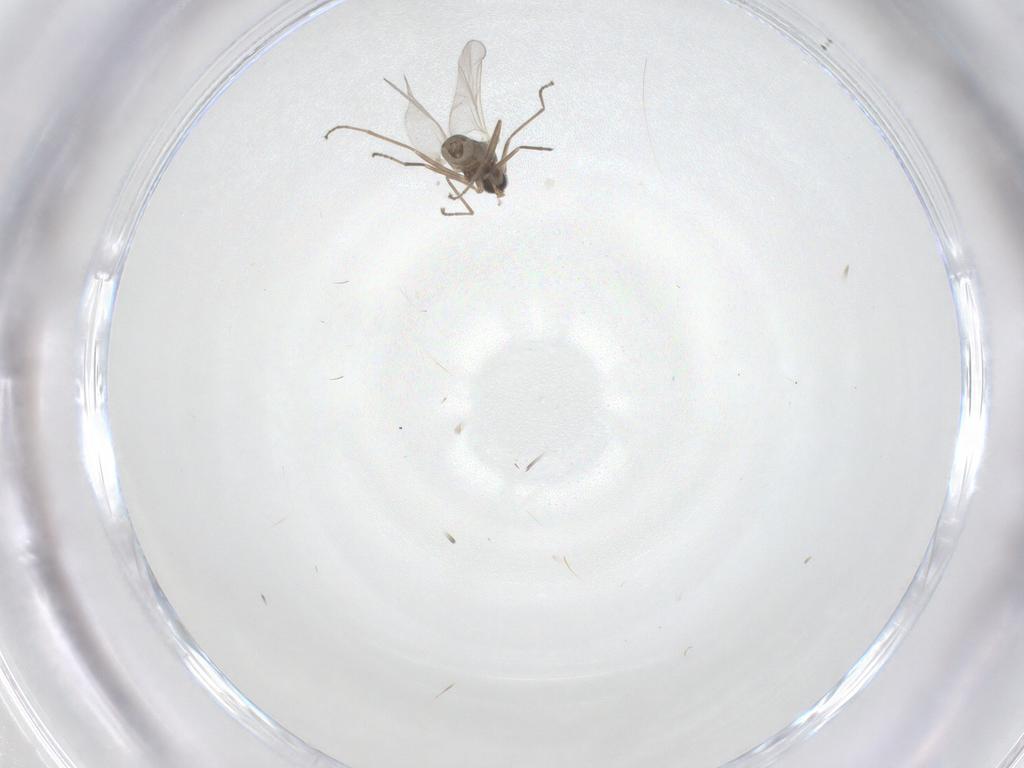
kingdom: Animalia
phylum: Arthropoda
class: Insecta
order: Diptera
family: Cecidomyiidae
